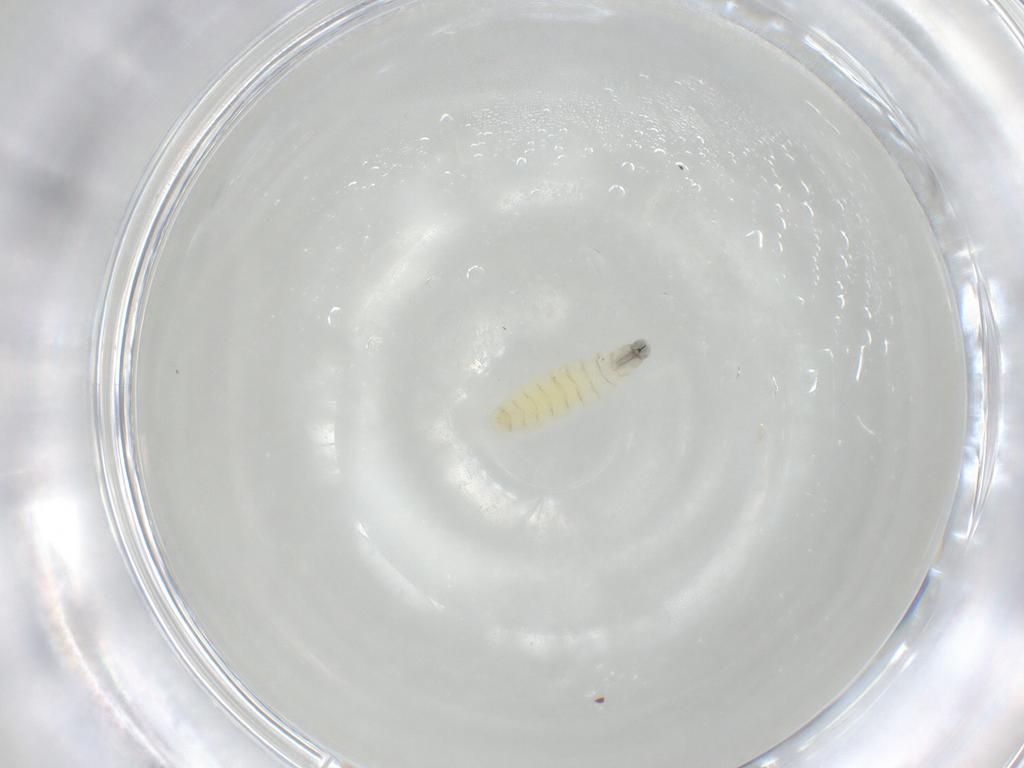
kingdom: Animalia
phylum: Arthropoda
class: Insecta
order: Diptera
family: Sarcophagidae
